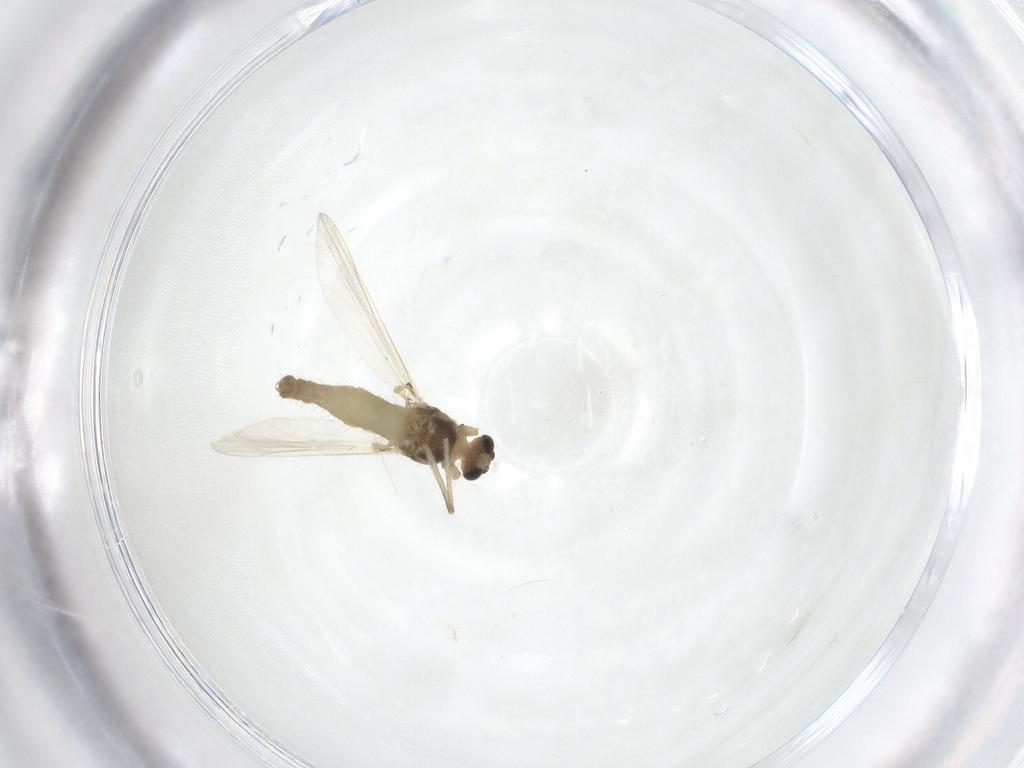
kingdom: Animalia
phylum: Arthropoda
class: Insecta
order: Diptera
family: Chironomidae
